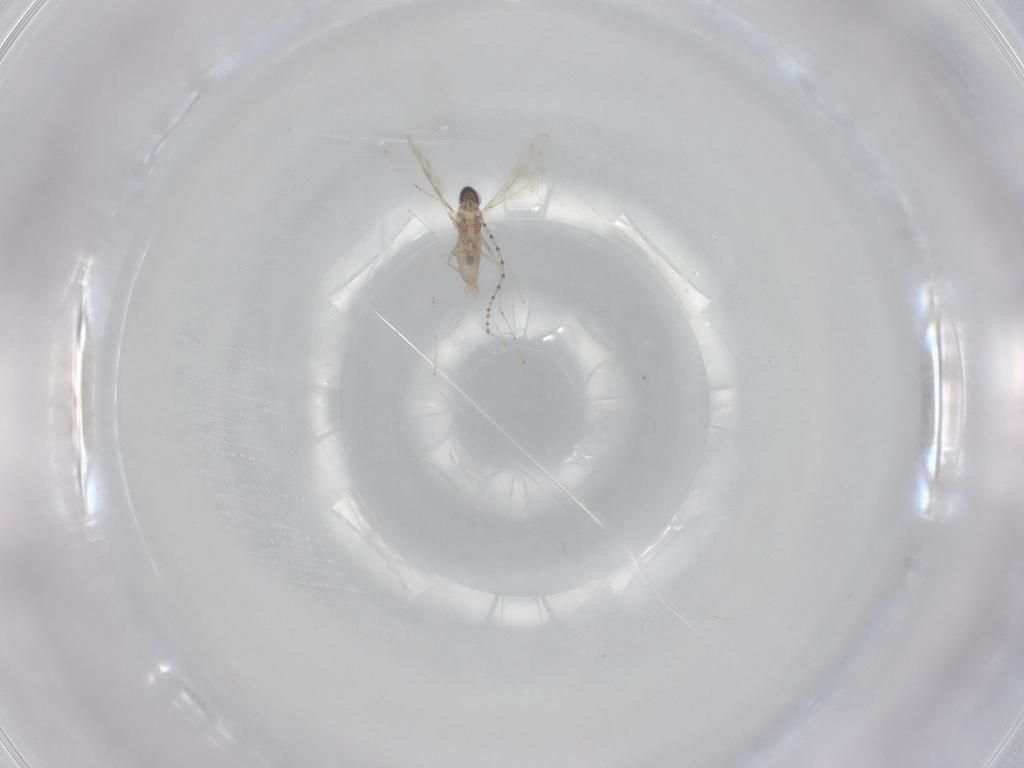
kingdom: Animalia
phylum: Arthropoda
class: Insecta
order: Diptera
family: Cecidomyiidae
